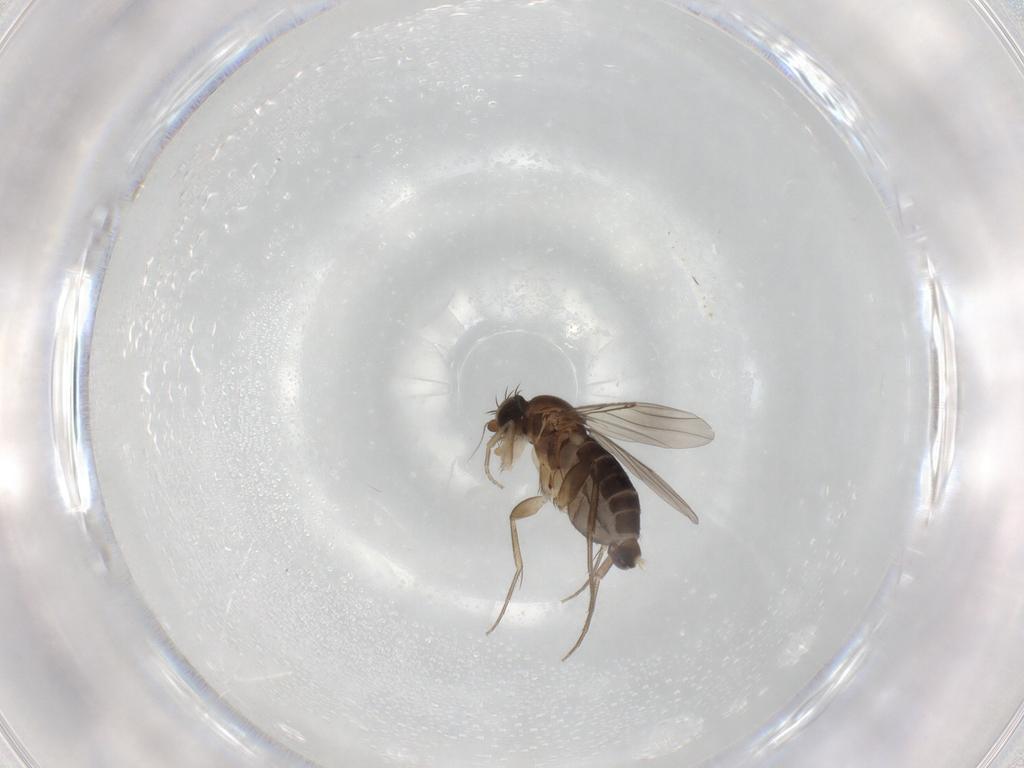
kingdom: Animalia
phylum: Arthropoda
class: Insecta
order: Diptera
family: Phoridae
